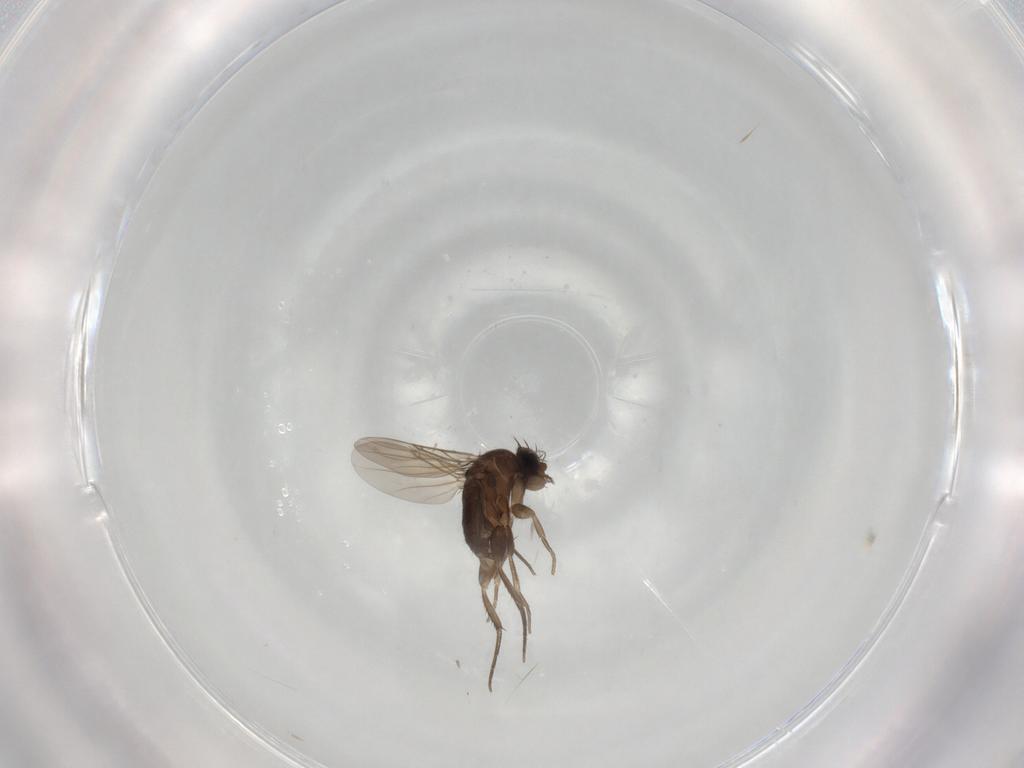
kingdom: Animalia
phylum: Arthropoda
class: Insecta
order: Diptera
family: Phoridae
